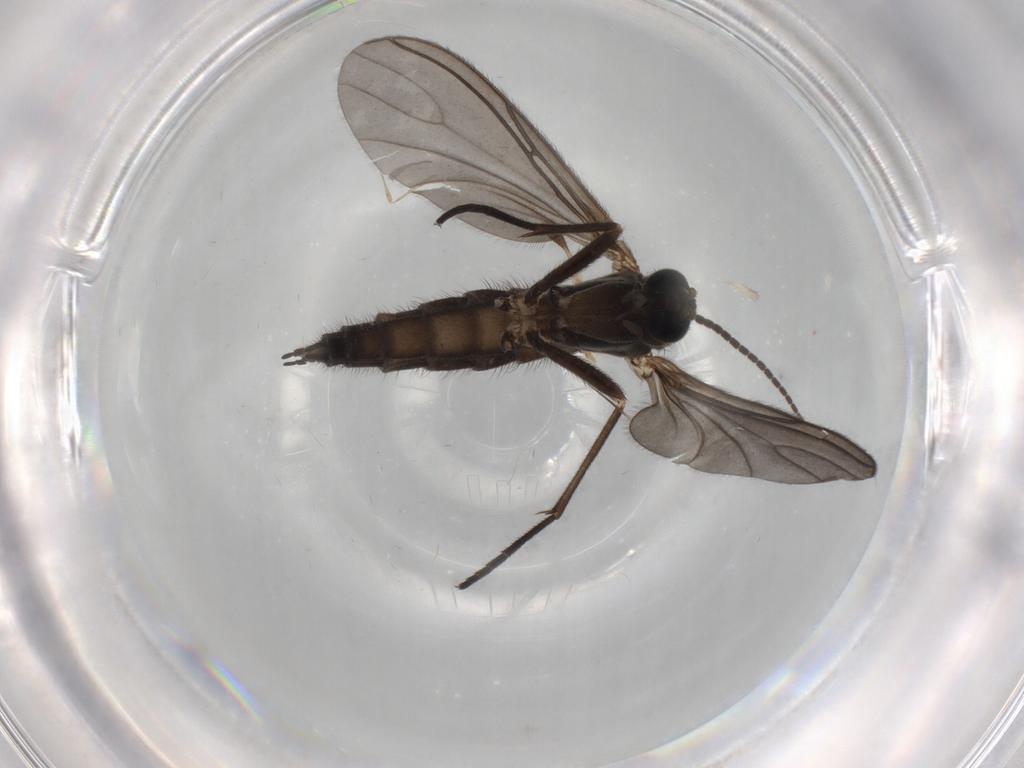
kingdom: Animalia
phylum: Arthropoda
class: Insecta
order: Diptera
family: Sciaridae
